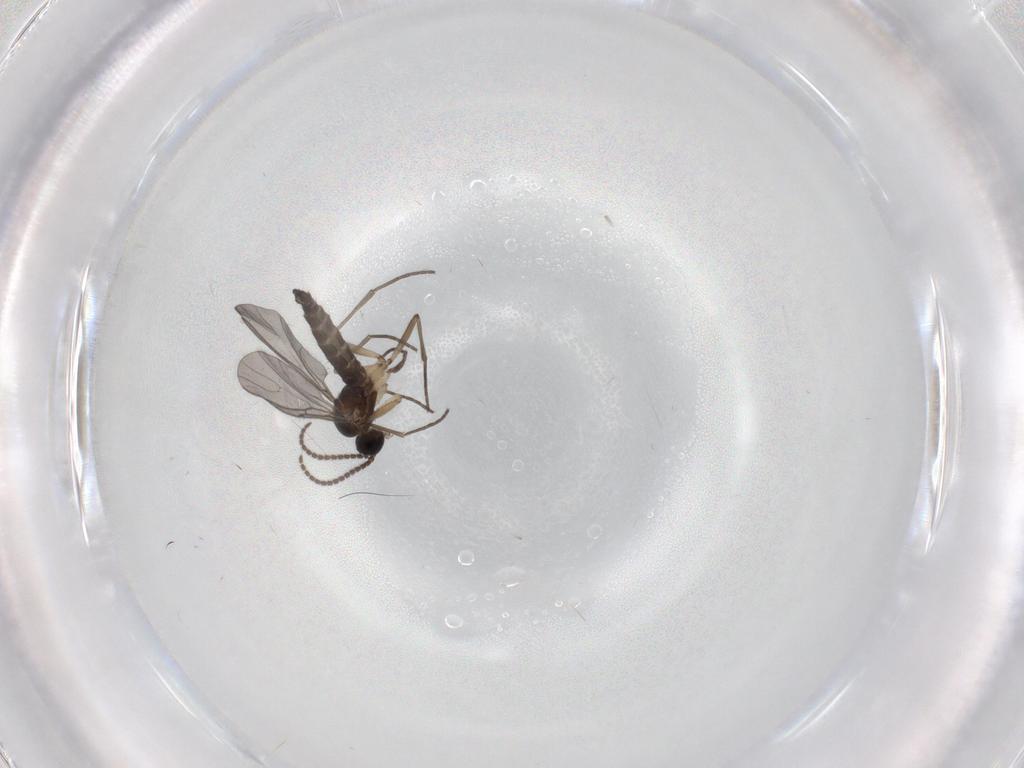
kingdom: Animalia
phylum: Arthropoda
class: Insecta
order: Diptera
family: Sciaridae
